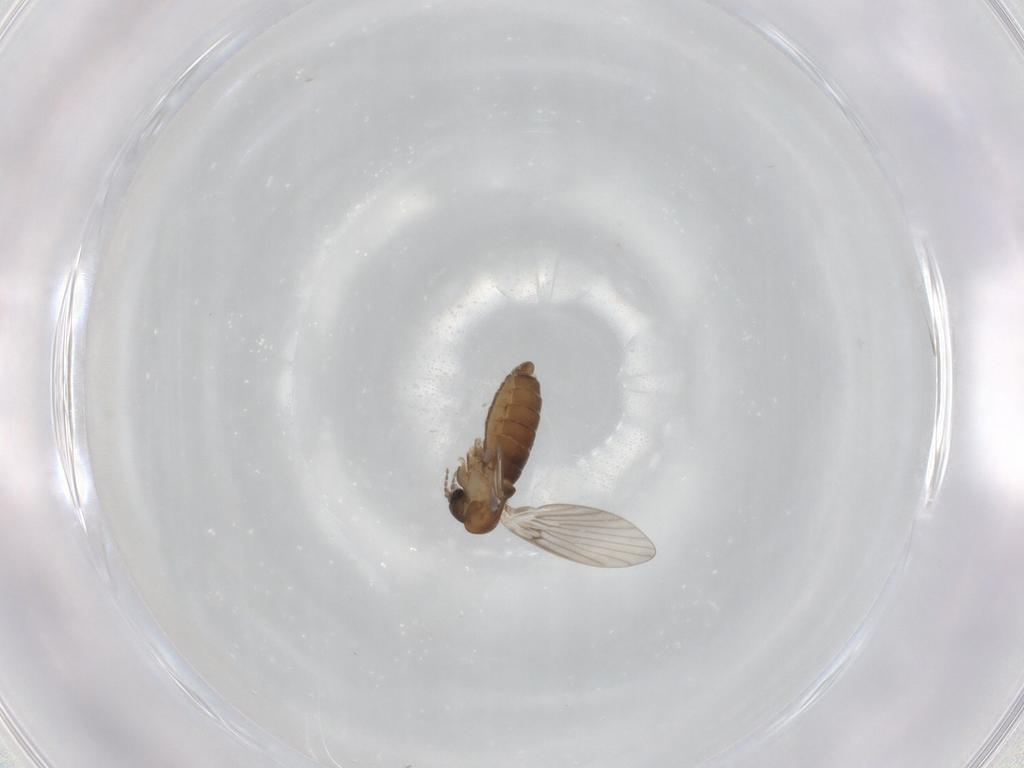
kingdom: Animalia
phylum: Arthropoda
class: Insecta
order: Diptera
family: Psychodidae
